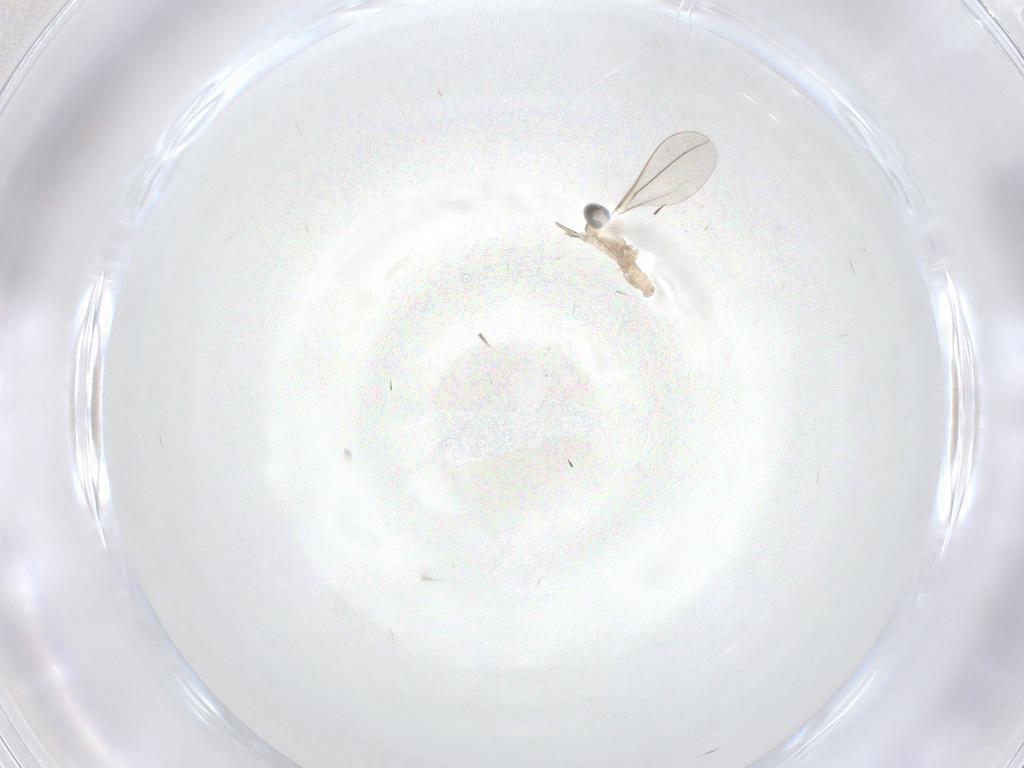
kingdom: Animalia
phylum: Arthropoda
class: Insecta
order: Diptera
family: Cecidomyiidae
